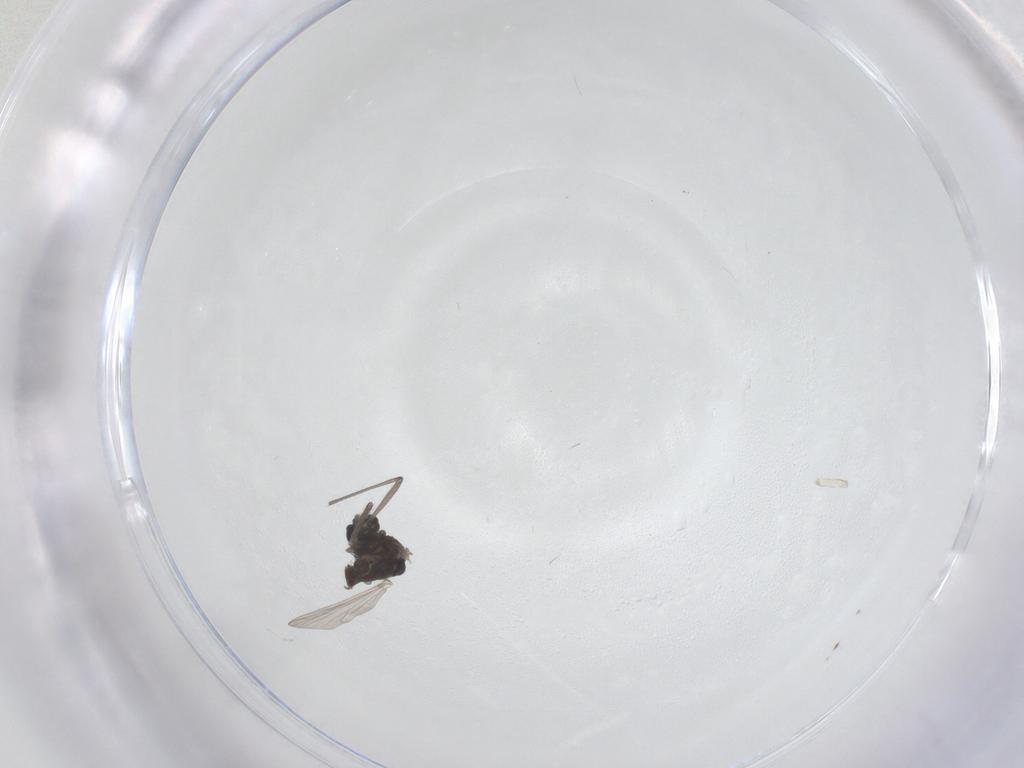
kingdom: Animalia
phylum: Arthropoda
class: Insecta
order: Diptera
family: Chironomidae
